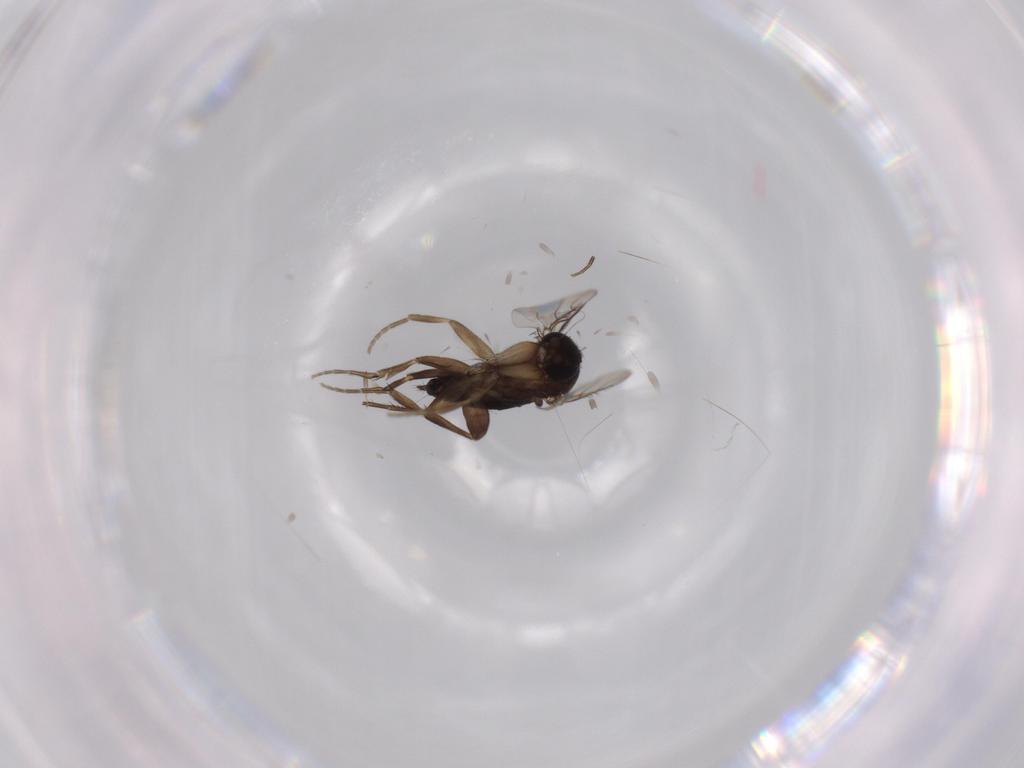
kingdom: Animalia
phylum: Arthropoda
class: Insecta
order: Diptera
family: Phoridae
